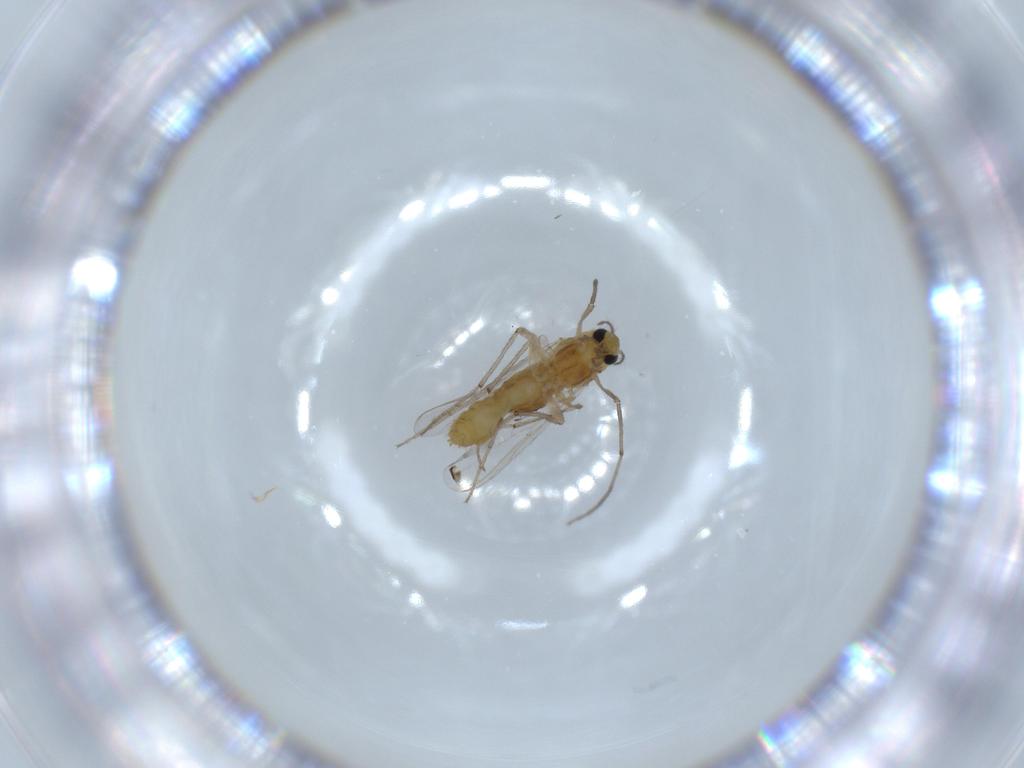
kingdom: Animalia
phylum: Arthropoda
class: Insecta
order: Diptera
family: Chironomidae
